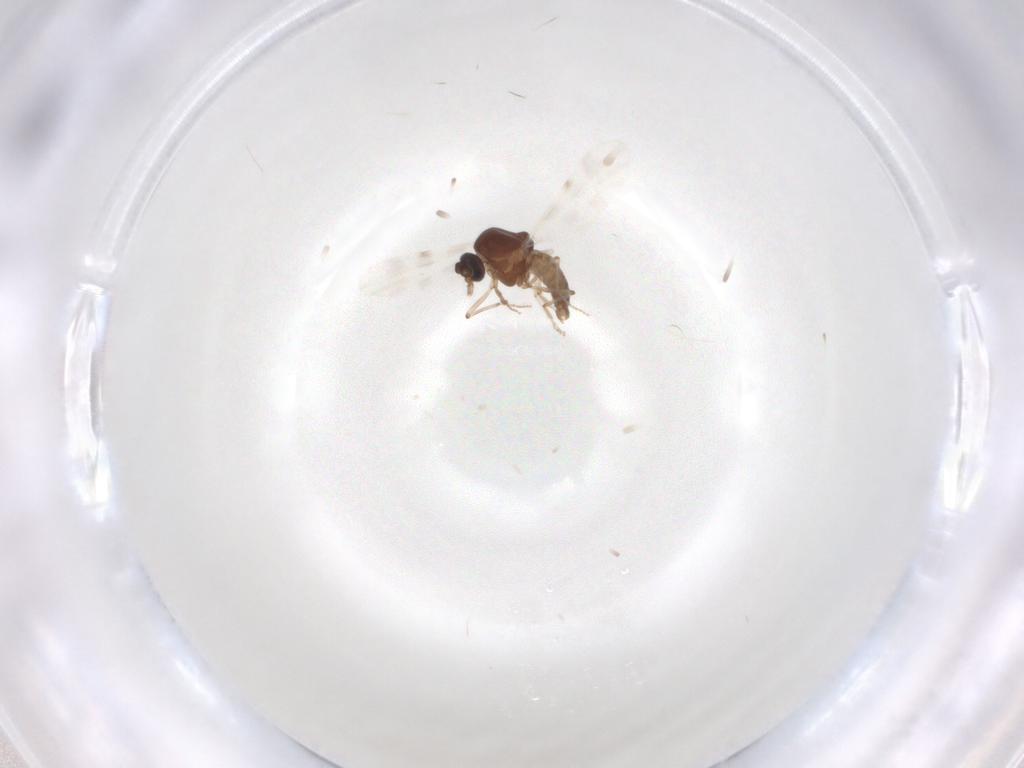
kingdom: Animalia
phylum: Arthropoda
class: Insecta
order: Diptera
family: Ceratopogonidae
